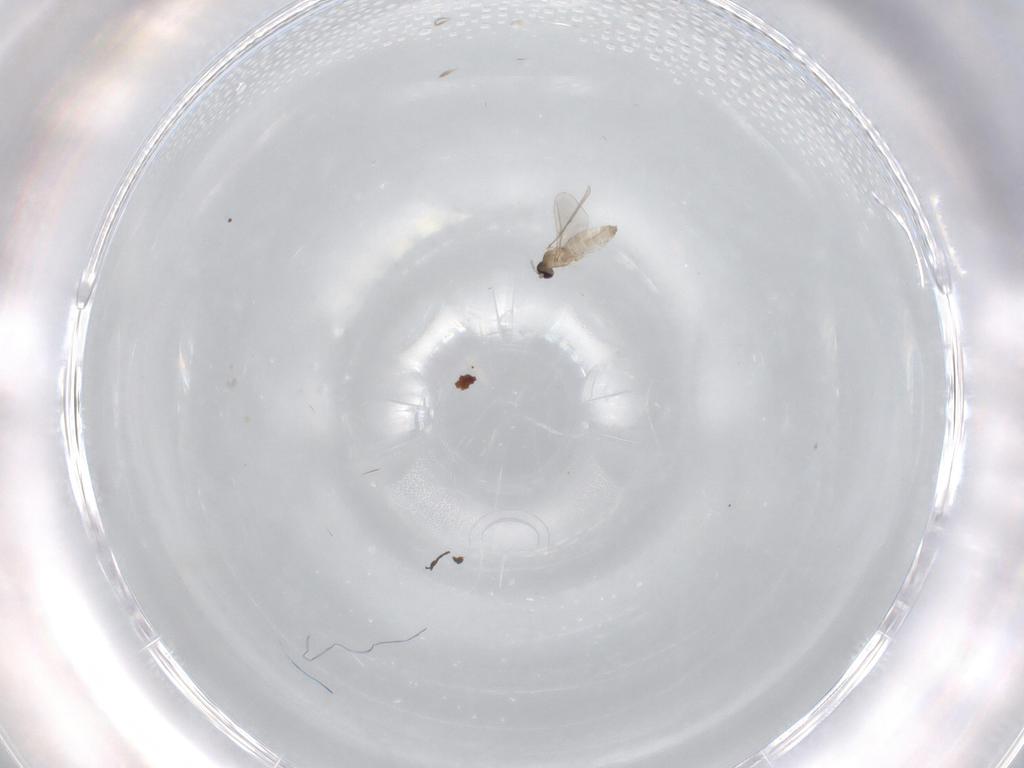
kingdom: Animalia
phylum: Arthropoda
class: Insecta
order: Diptera
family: Cecidomyiidae
